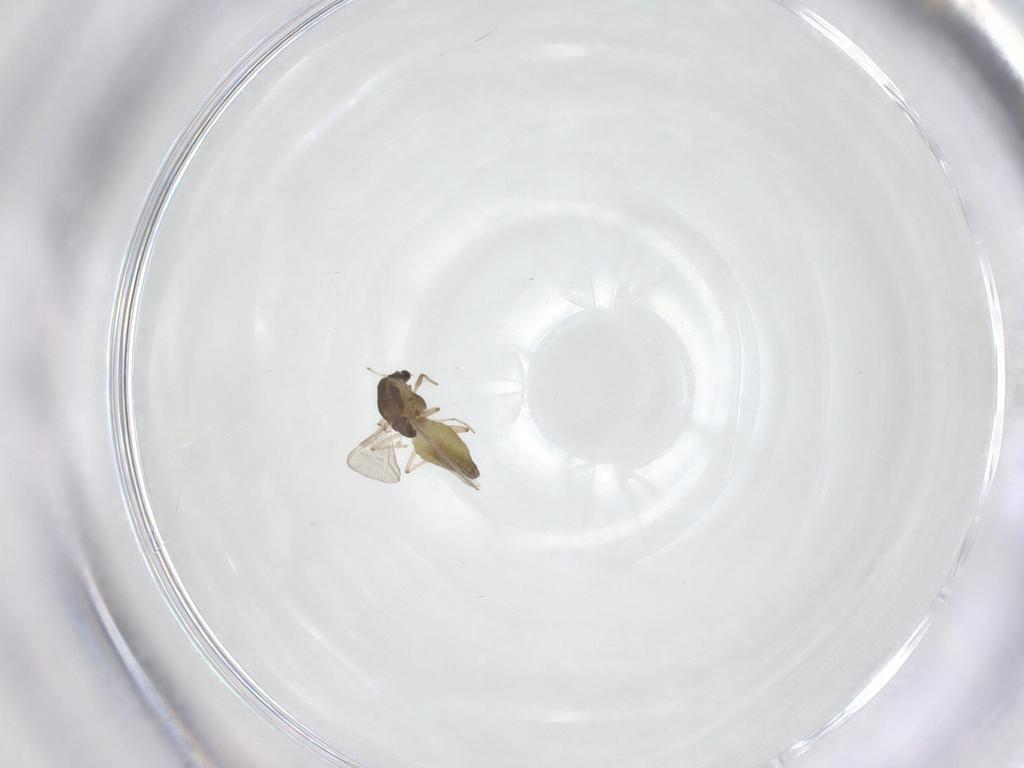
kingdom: Animalia
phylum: Arthropoda
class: Insecta
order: Diptera
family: Chironomidae
